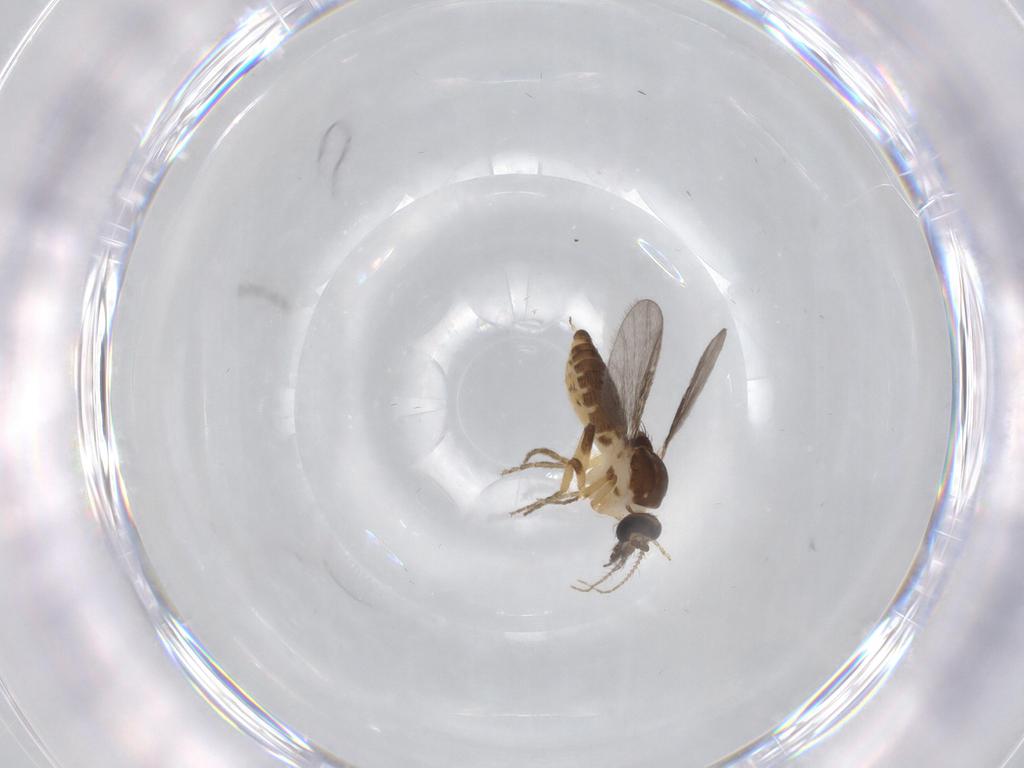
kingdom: Animalia
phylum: Arthropoda
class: Insecta
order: Diptera
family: Ceratopogonidae
